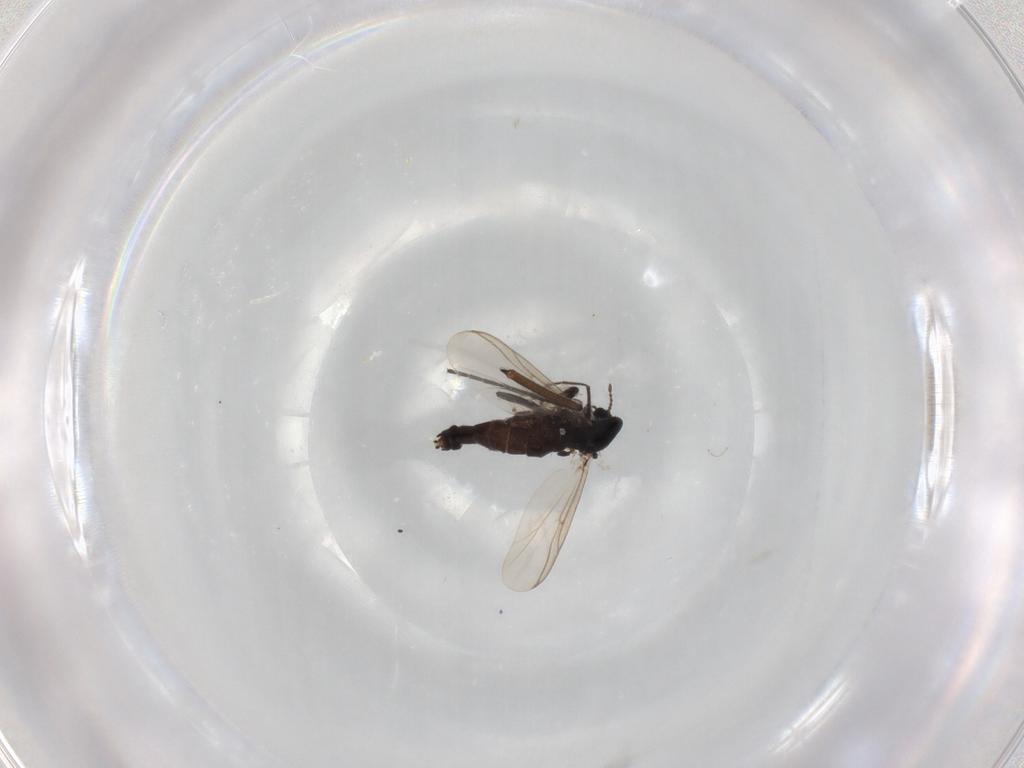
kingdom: Animalia
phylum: Arthropoda
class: Insecta
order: Diptera
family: Chironomidae
